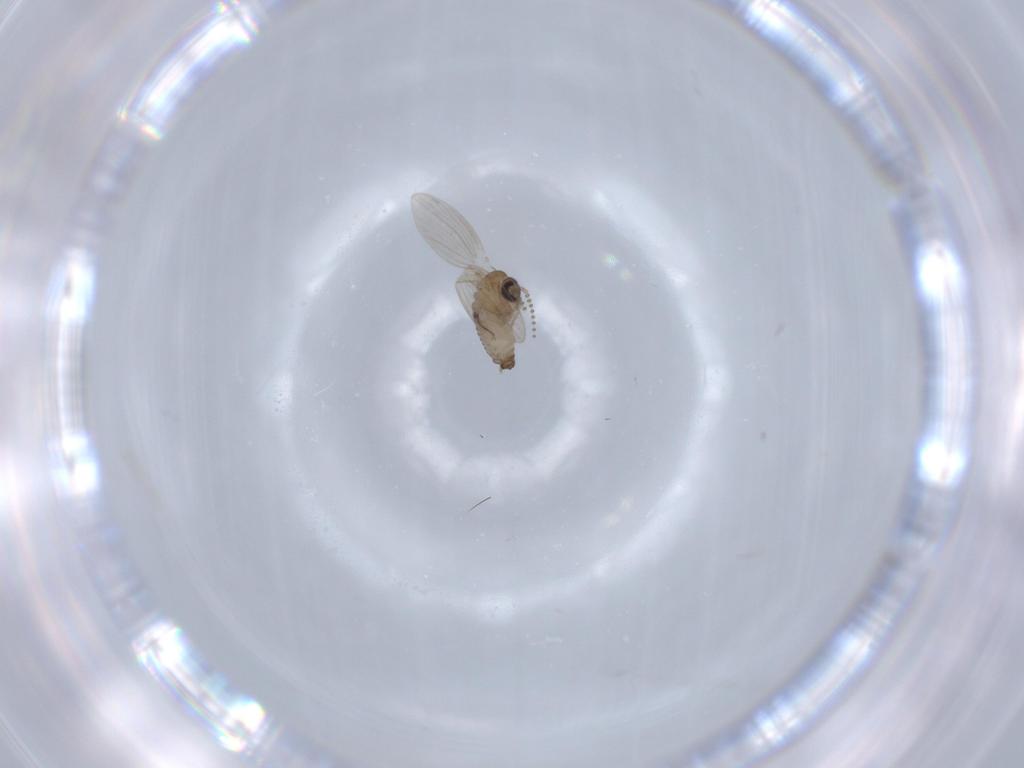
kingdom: Animalia
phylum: Arthropoda
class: Insecta
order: Diptera
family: Psychodidae
